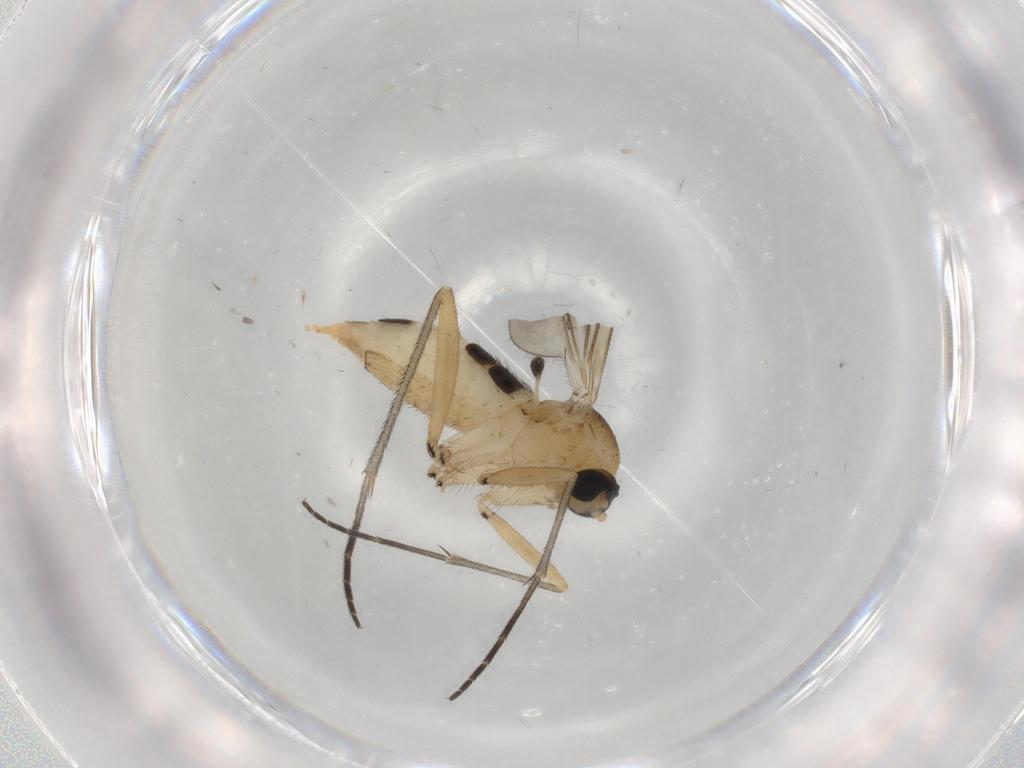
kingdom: Animalia
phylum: Arthropoda
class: Insecta
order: Diptera
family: Sciaridae
